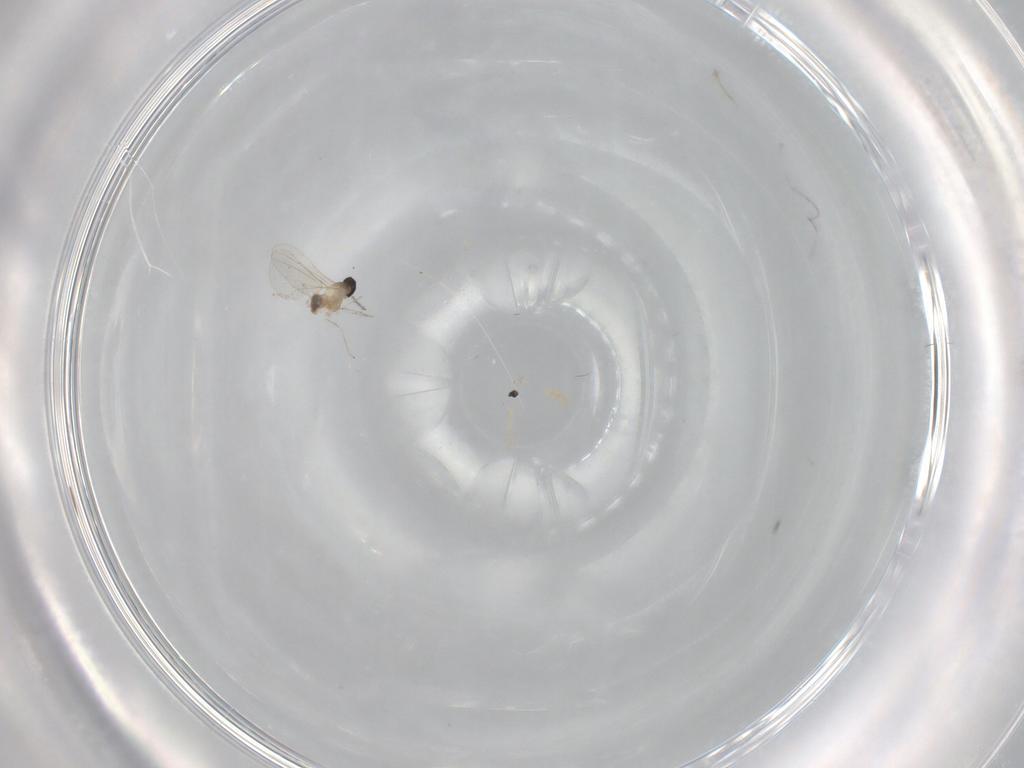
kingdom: Animalia
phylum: Arthropoda
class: Insecta
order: Diptera
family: Cecidomyiidae
